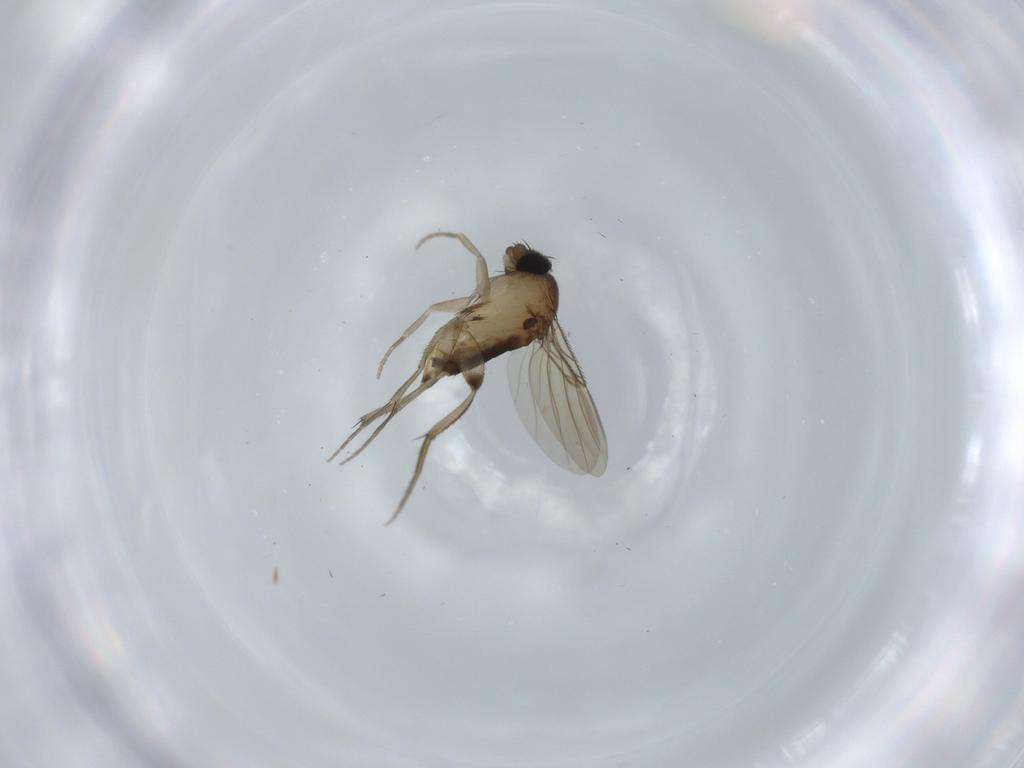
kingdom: Animalia
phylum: Arthropoda
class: Insecta
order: Diptera
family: Phoridae
